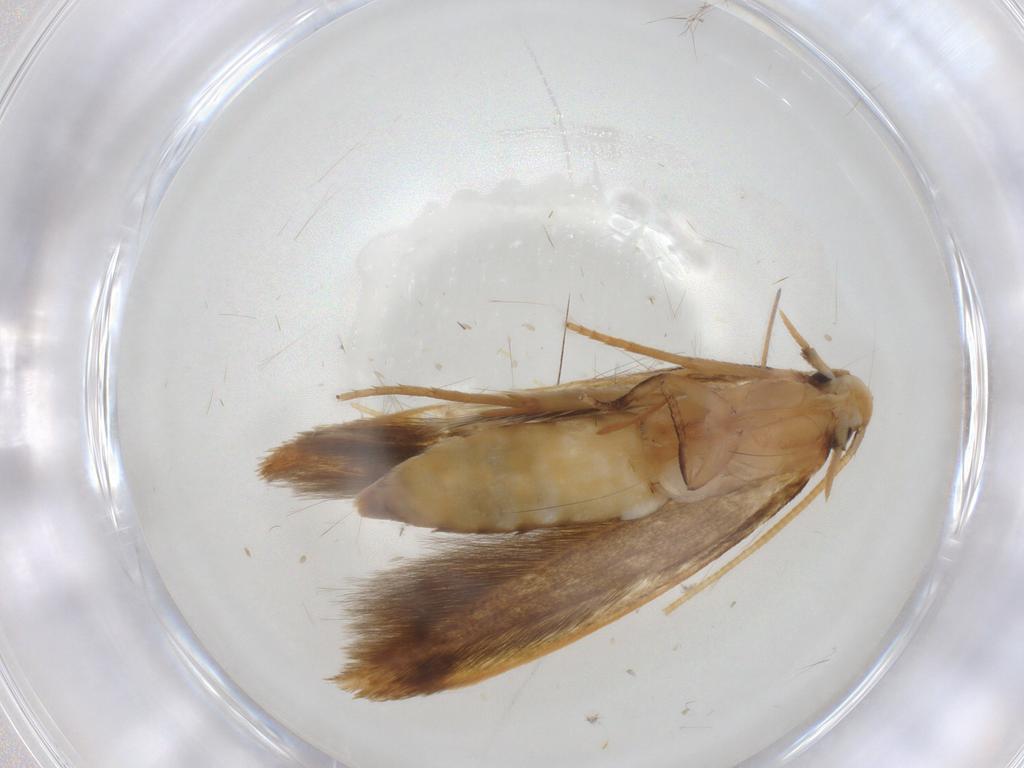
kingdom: Animalia
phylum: Arthropoda
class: Insecta
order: Lepidoptera
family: Tineidae
